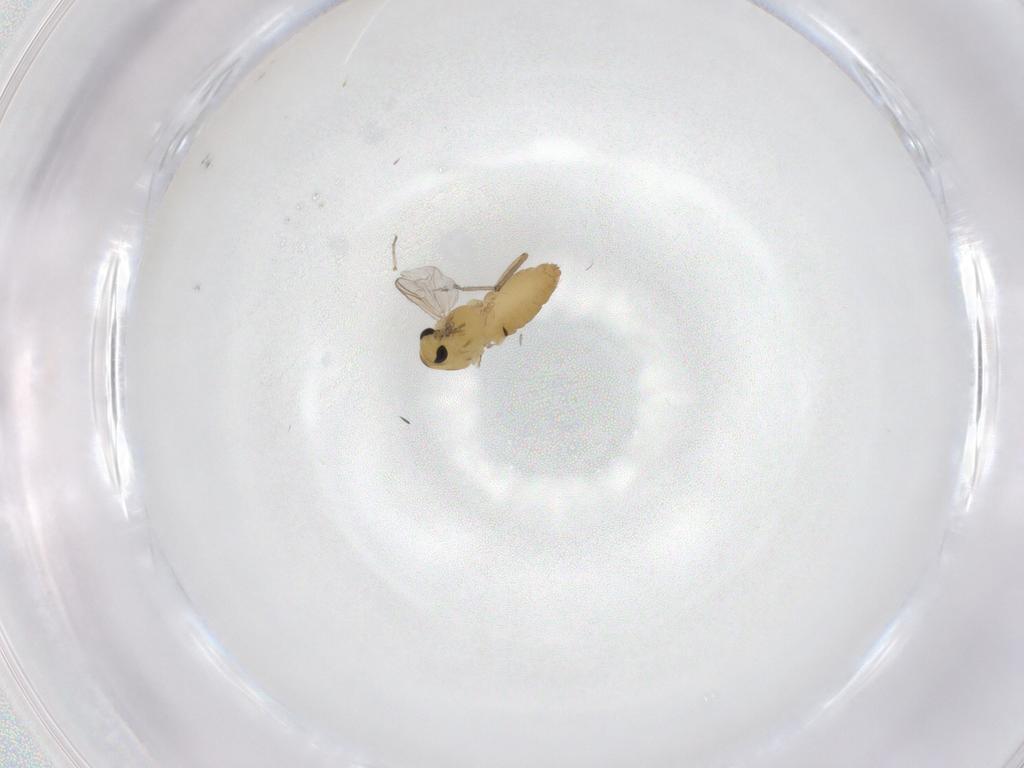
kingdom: Animalia
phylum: Arthropoda
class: Insecta
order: Diptera
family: Chironomidae
